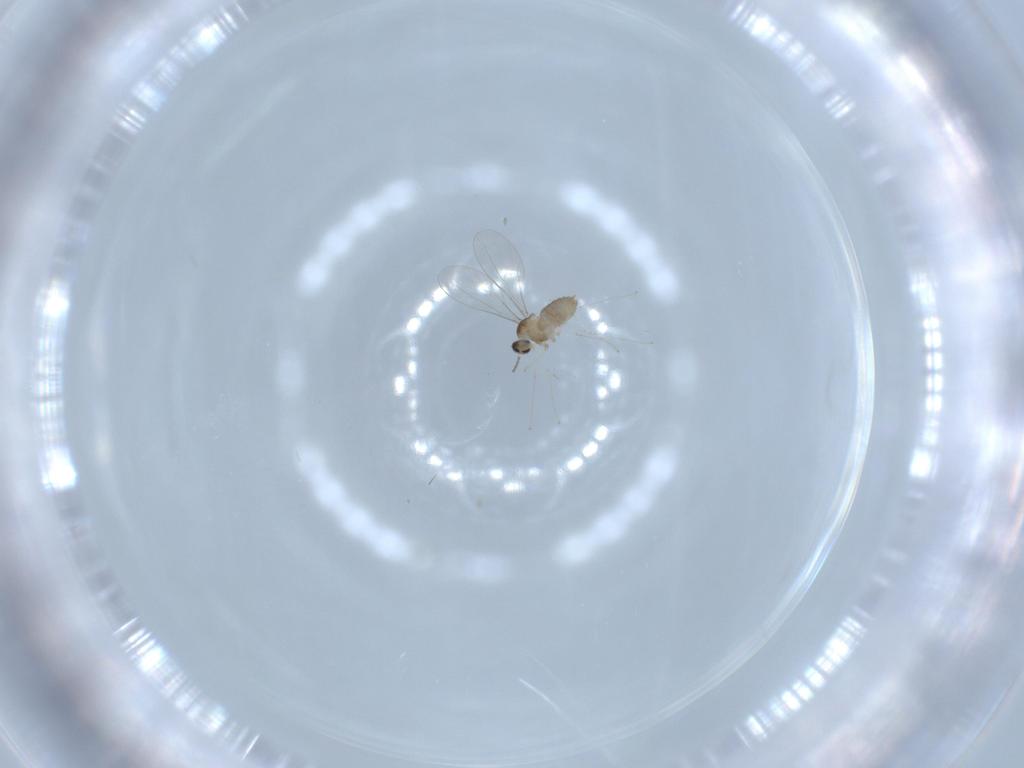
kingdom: Animalia
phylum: Arthropoda
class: Insecta
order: Diptera
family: Cecidomyiidae
